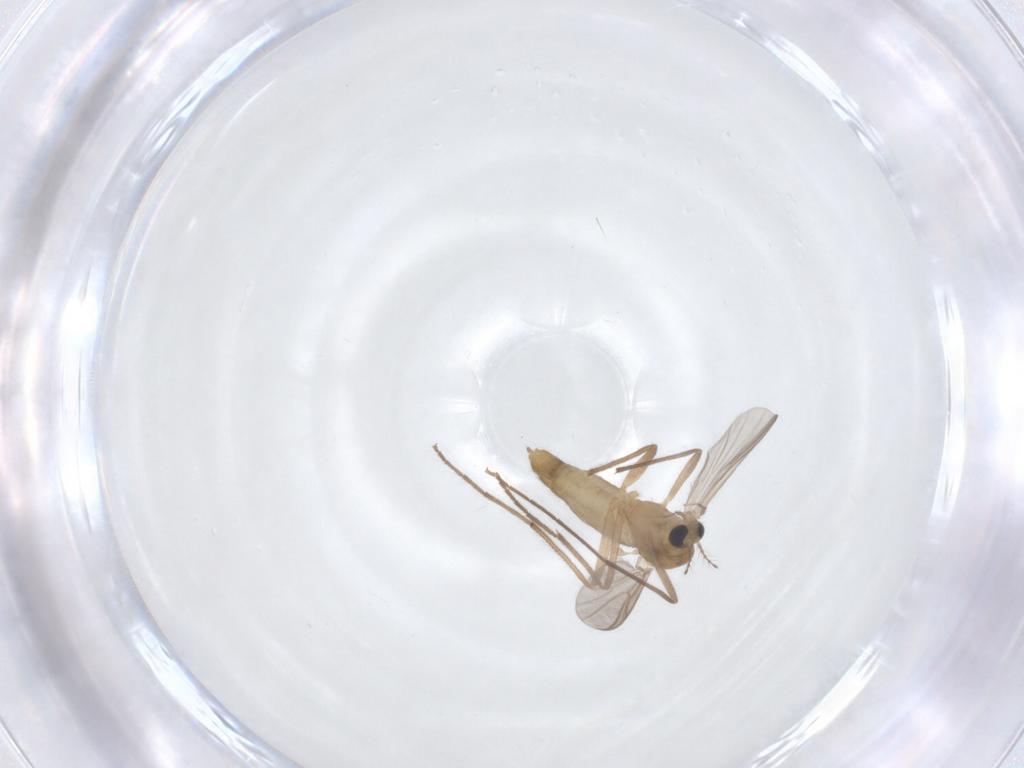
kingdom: Animalia
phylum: Arthropoda
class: Insecta
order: Diptera
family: Chironomidae
